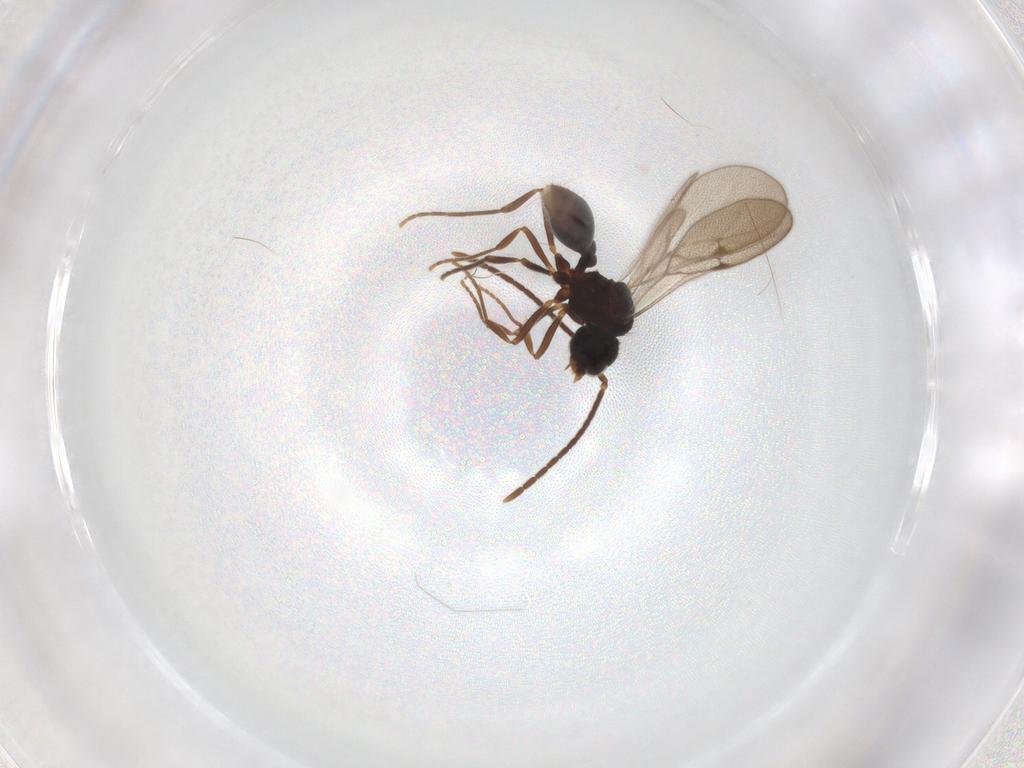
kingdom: Animalia
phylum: Arthropoda
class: Insecta
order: Hymenoptera
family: Formicidae
